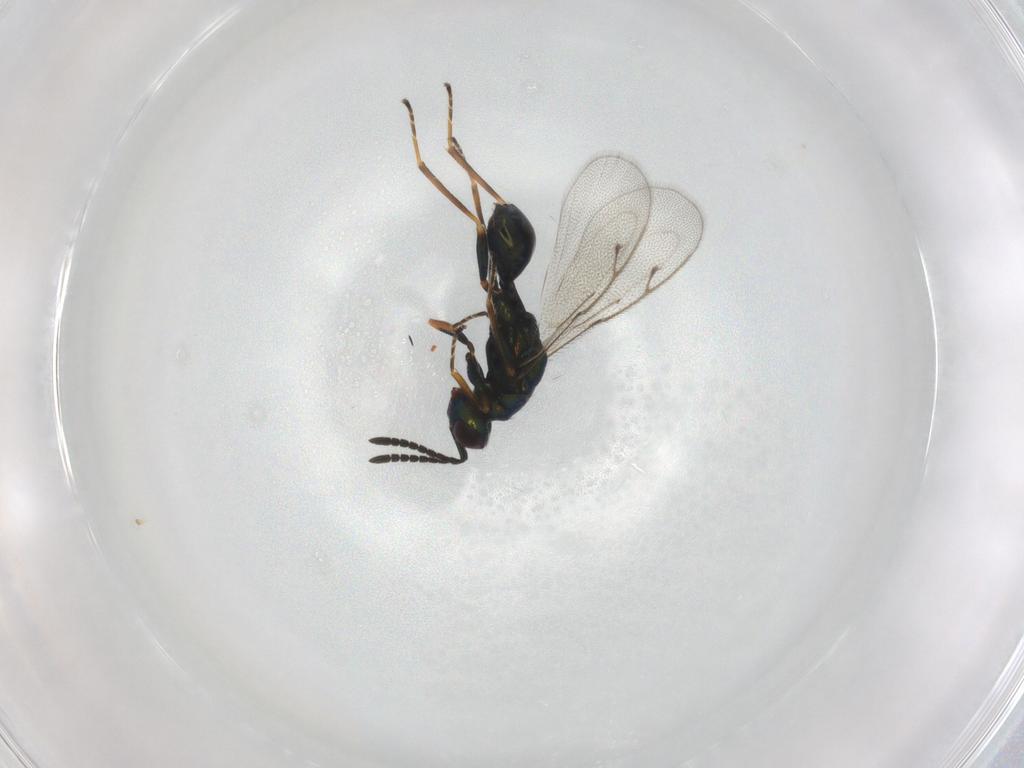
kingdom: Animalia
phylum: Arthropoda
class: Insecta
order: Hymenoptera
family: Pteromalidae
